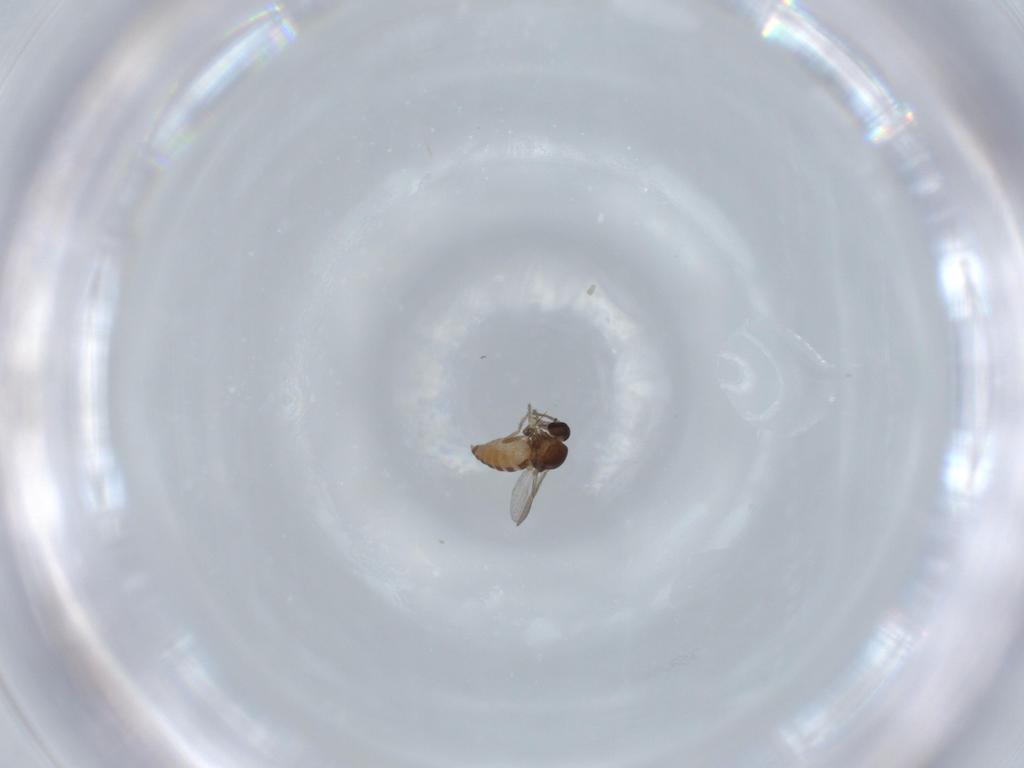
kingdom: Animalia
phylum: Arthropoda
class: Insecta
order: Diptera
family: Ceratopogonidae
